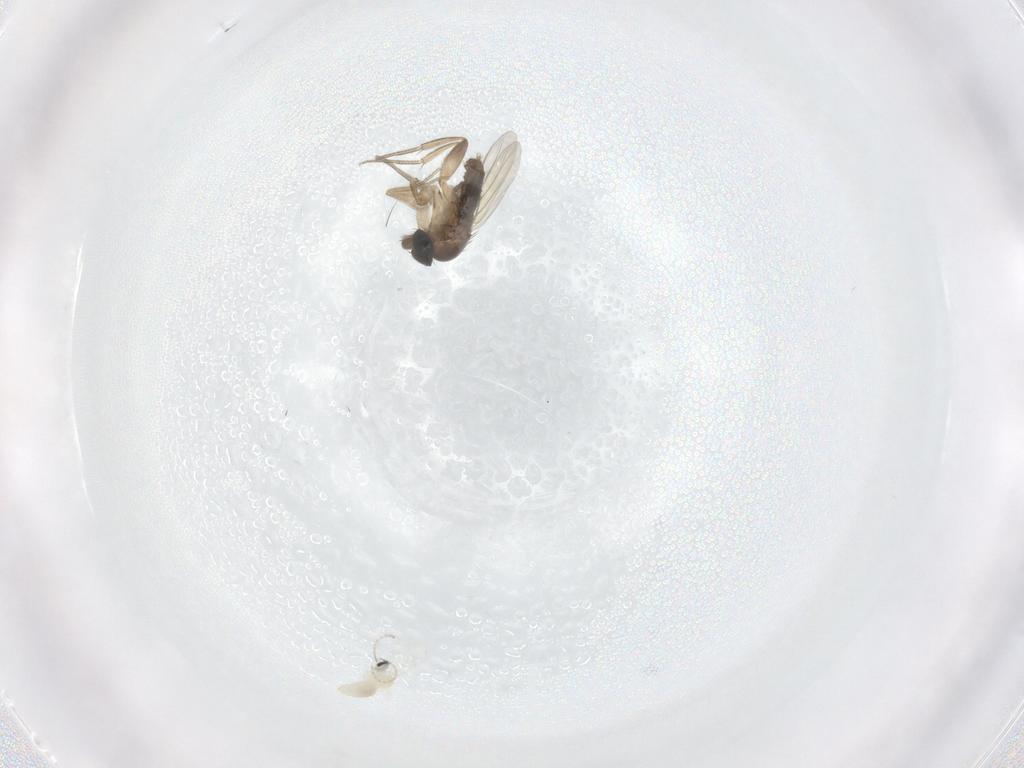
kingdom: Animalia
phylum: Arthropoda
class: Insecta
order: Diptera
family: Cecidomyiidae
